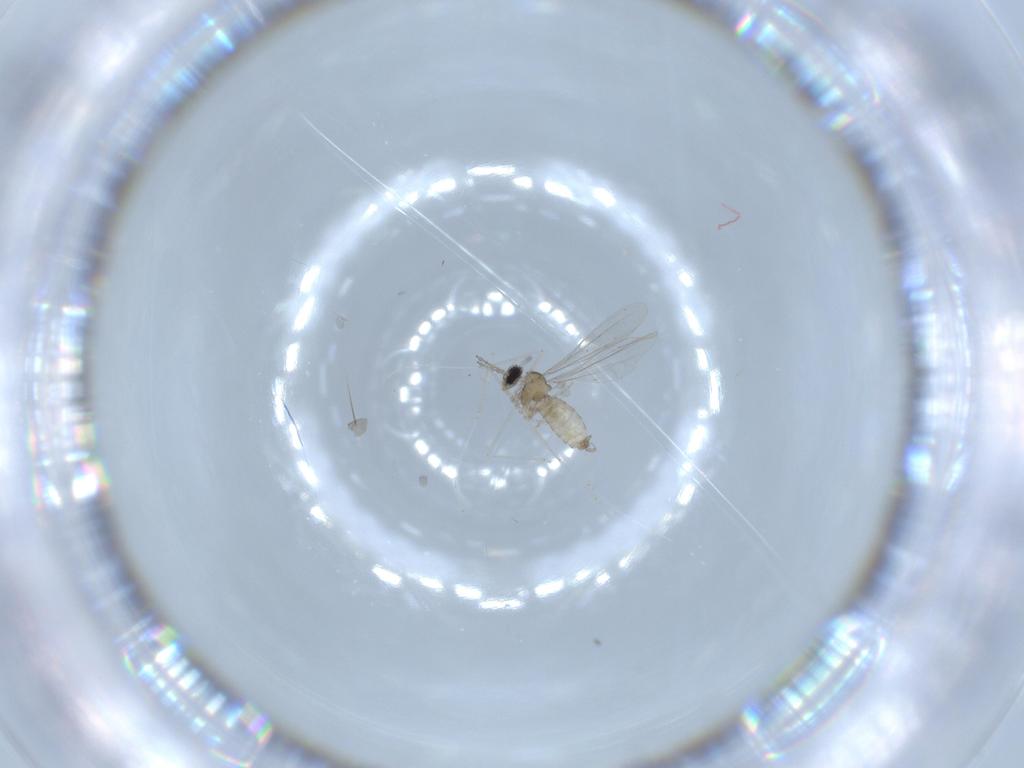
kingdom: Animalia
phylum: Arthropoda
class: Insecta
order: Diptera
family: Cecidomyiidae
